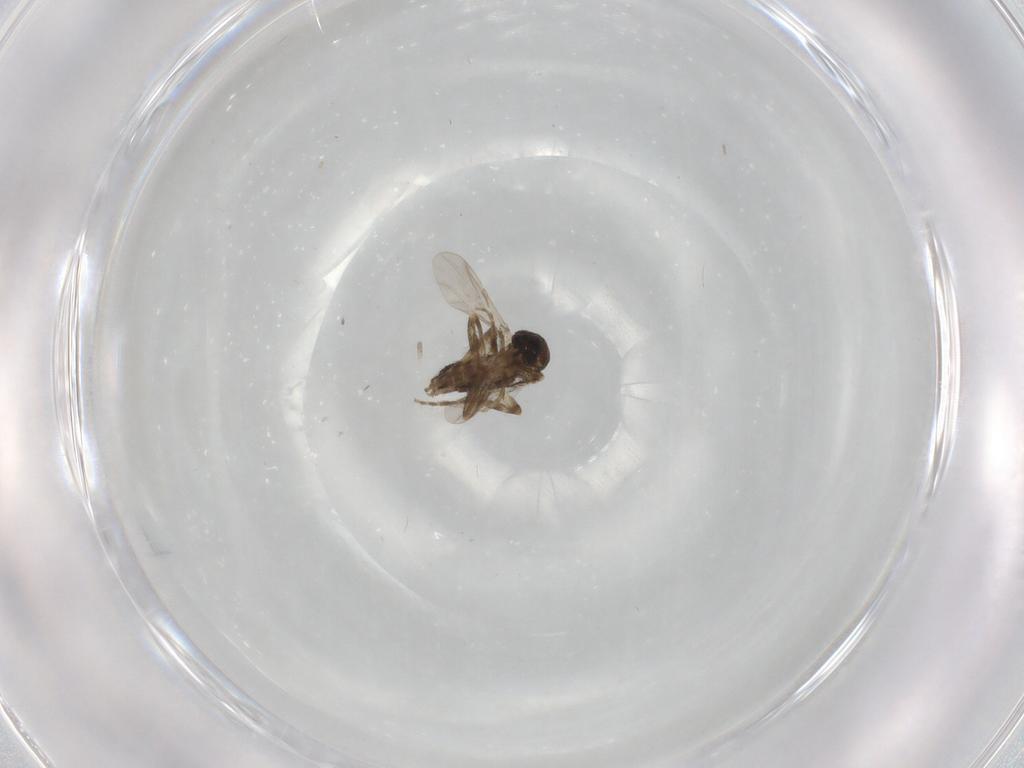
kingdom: Animalia
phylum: Arthropoda
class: Insecta
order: Diptera
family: Ceratopogonidae
